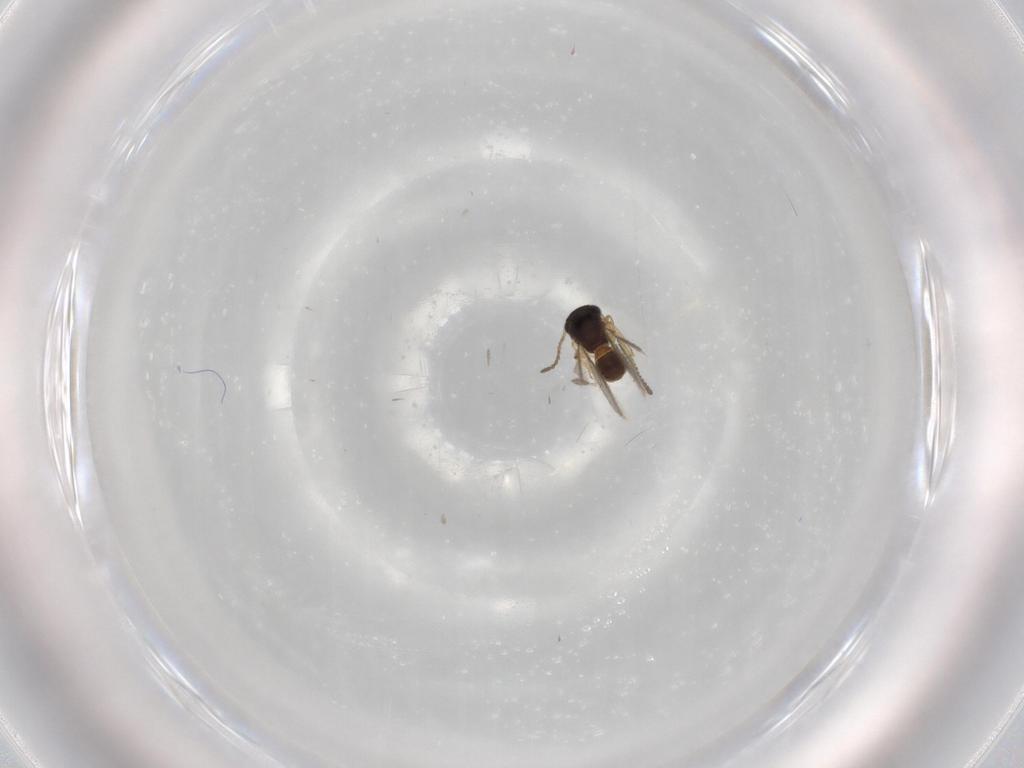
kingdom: Animalia
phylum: Arthropoda
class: Insecta
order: Hymenoptera
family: Scelionidae
